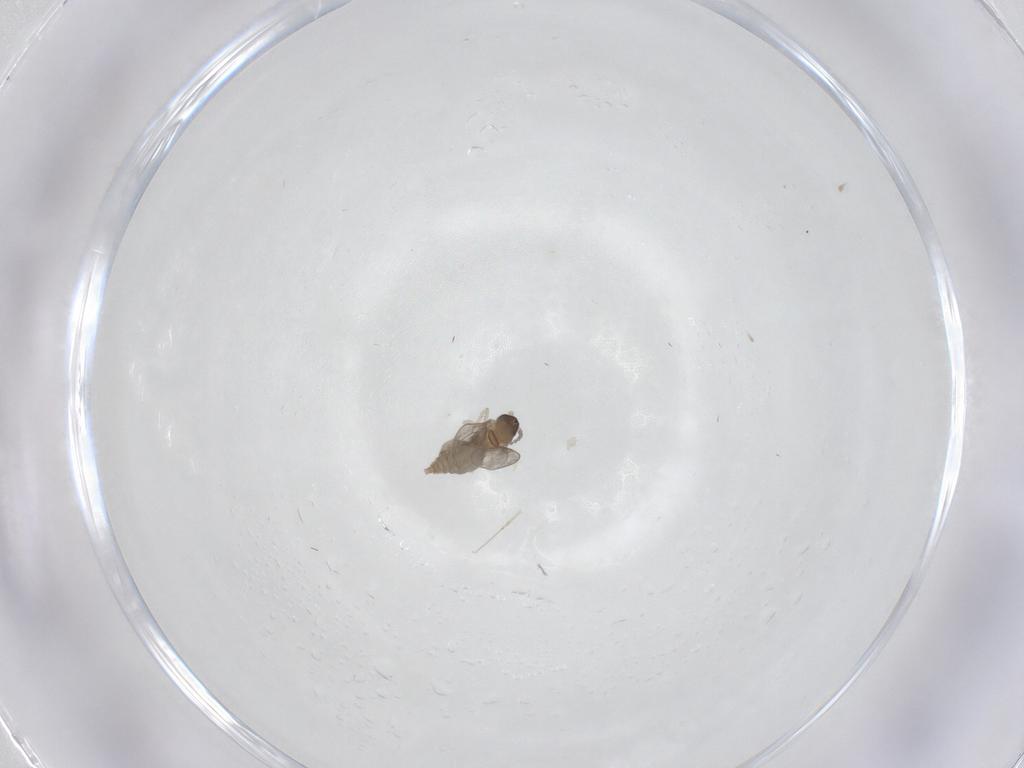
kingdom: Animalia
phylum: Arthropoda
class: Insecta
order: Diptera
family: Cecidomyiidae
